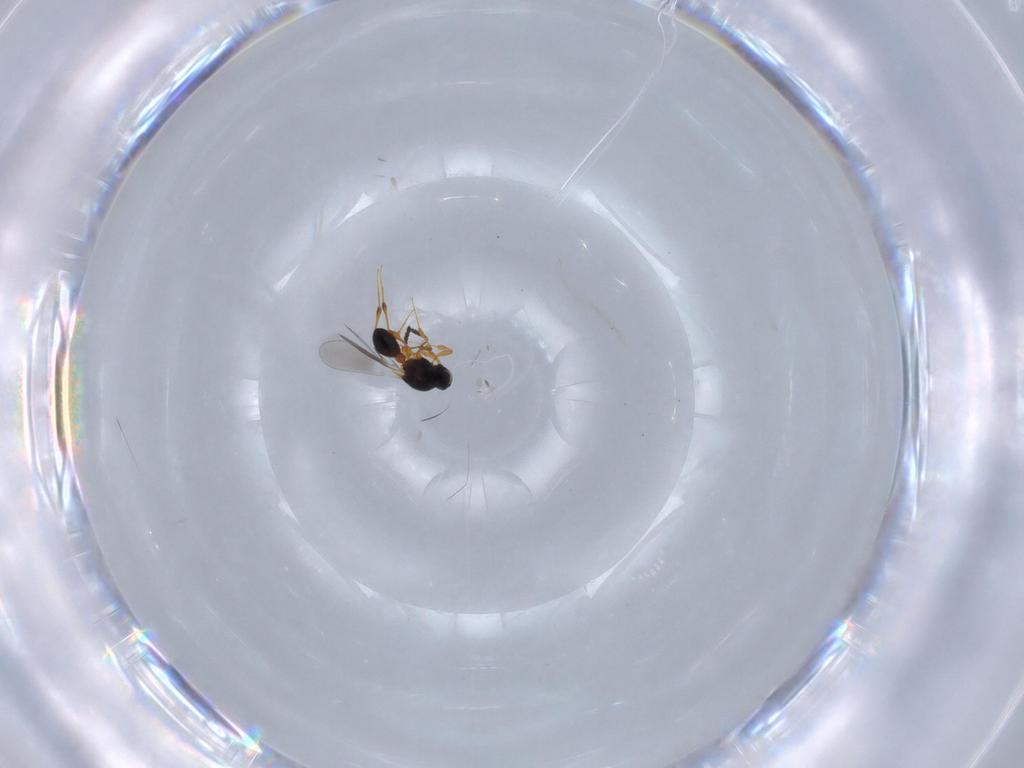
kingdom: Animalia
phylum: Arthropoda
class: Insecta
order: Hymenoptera
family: Platygastridae
